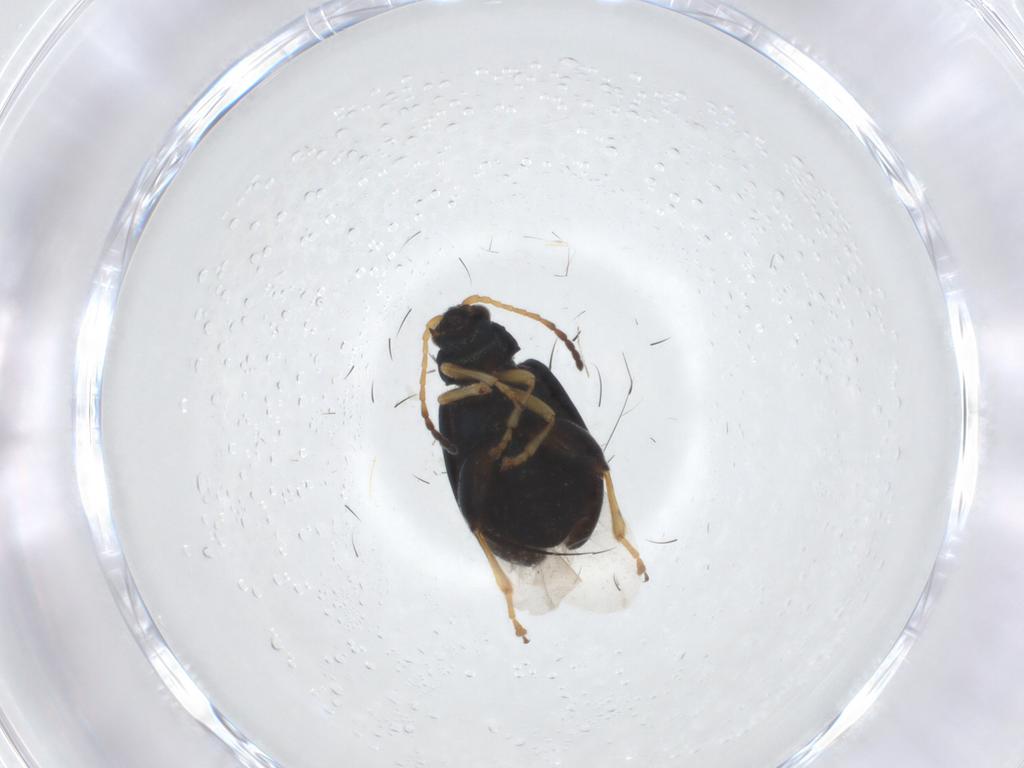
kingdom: Animalia
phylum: Arthropoda
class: Insecta
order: Coleoptera
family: Chrysomelidae
